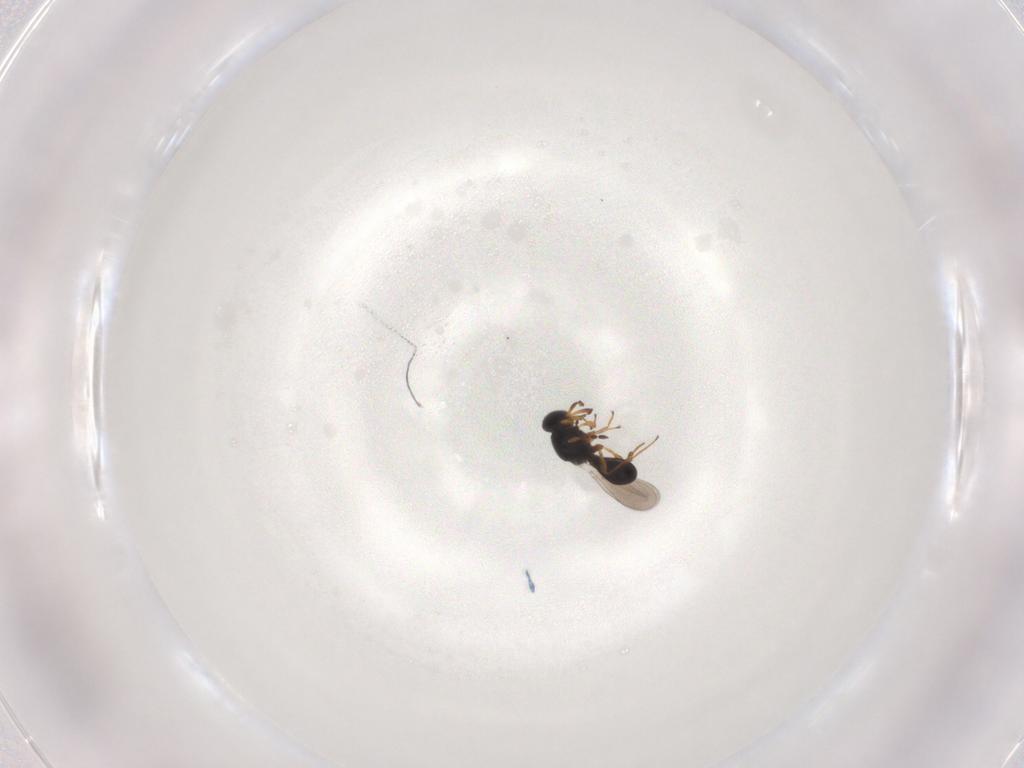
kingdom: Animalia
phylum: Arthropoda
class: Insecta
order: Hymenoptera
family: Platygastridae
